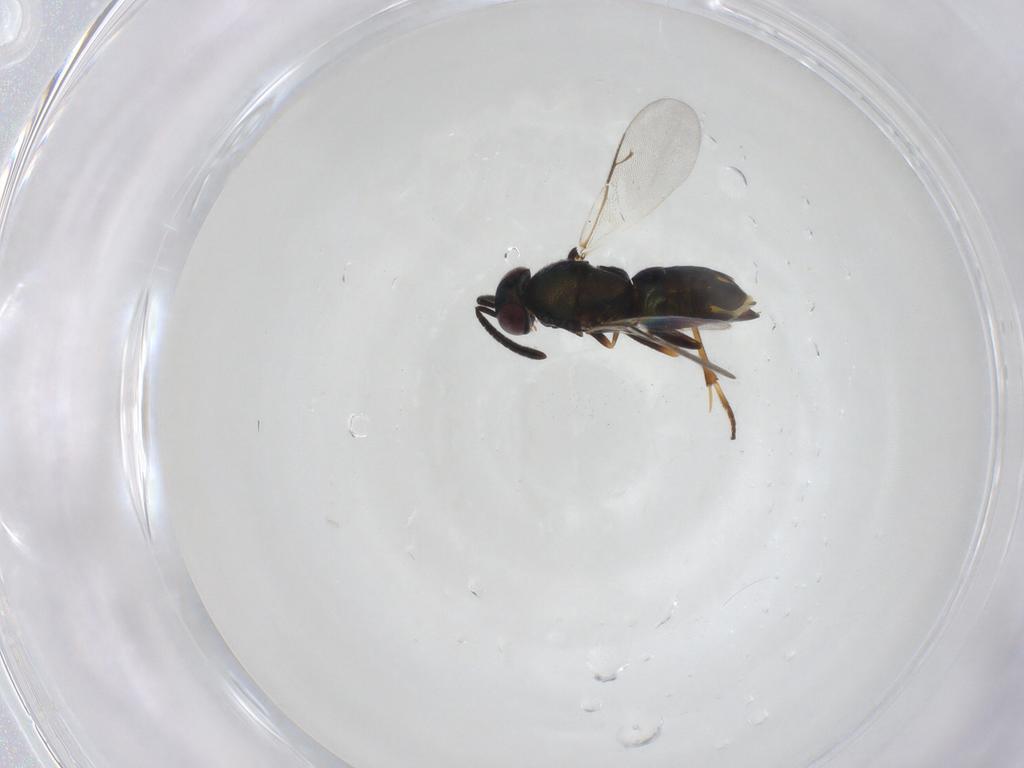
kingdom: Animalia
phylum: Arthropoda
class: Insecta
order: Hymenoptera
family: Encyrtidae
